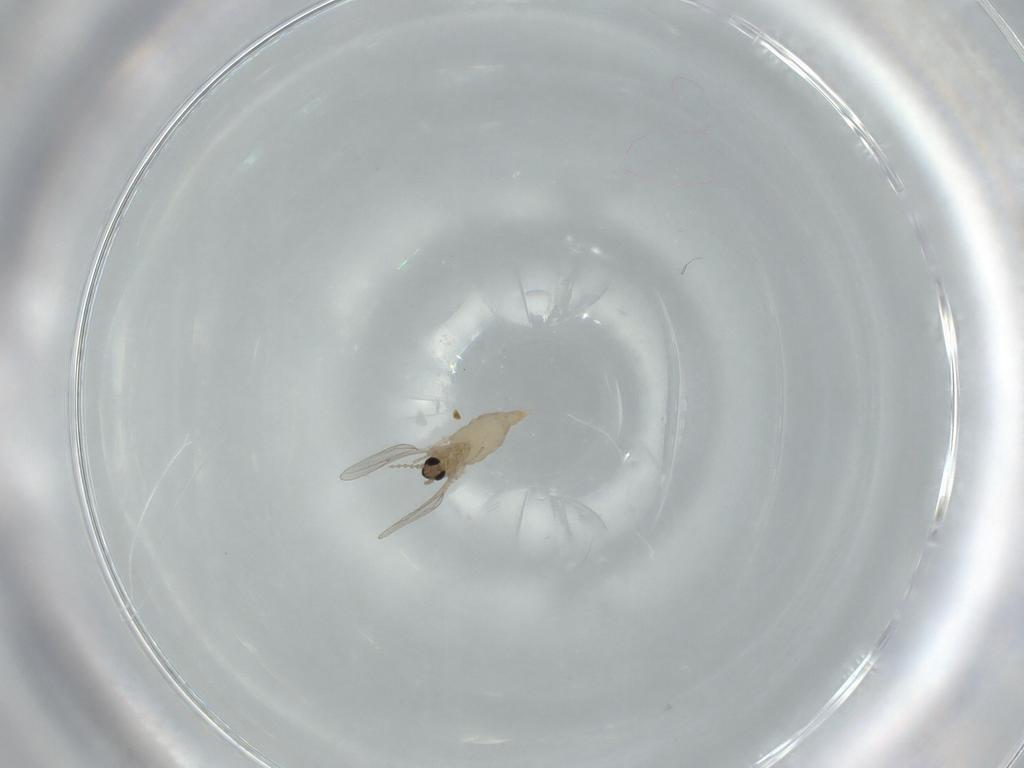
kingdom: Animalia
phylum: Arthropoda
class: Insecta
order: Diptera
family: Cecidomyiidae
